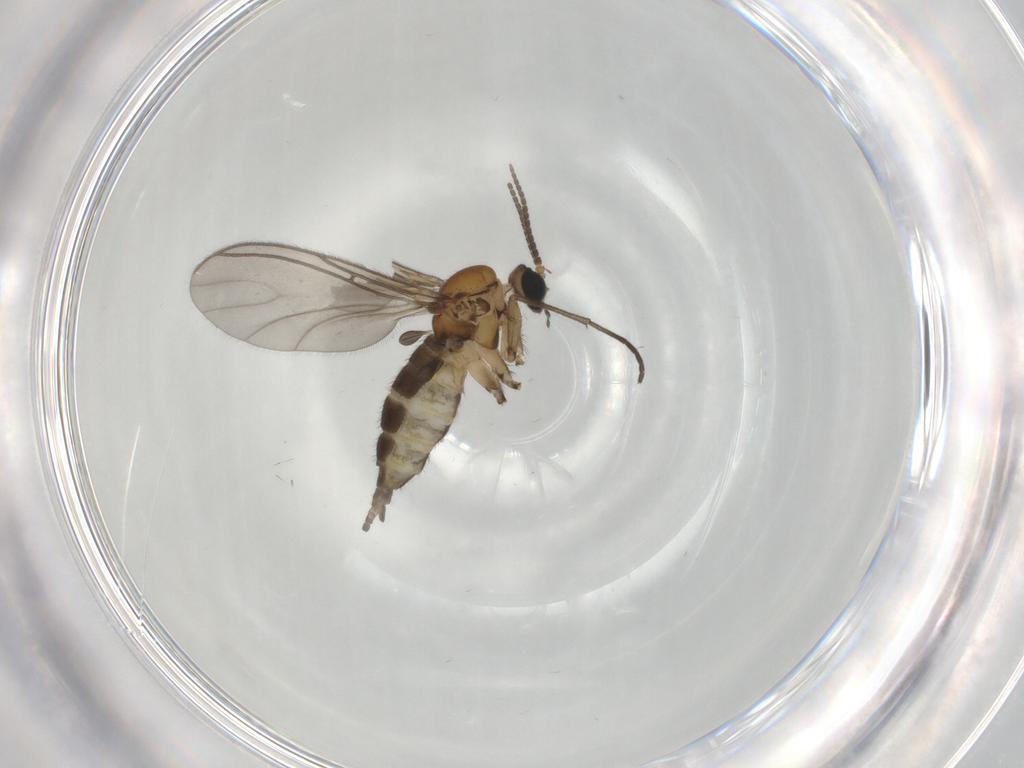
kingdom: Animalia
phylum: Arthropoda
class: Insecta
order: Diptera
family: Sciaridae
